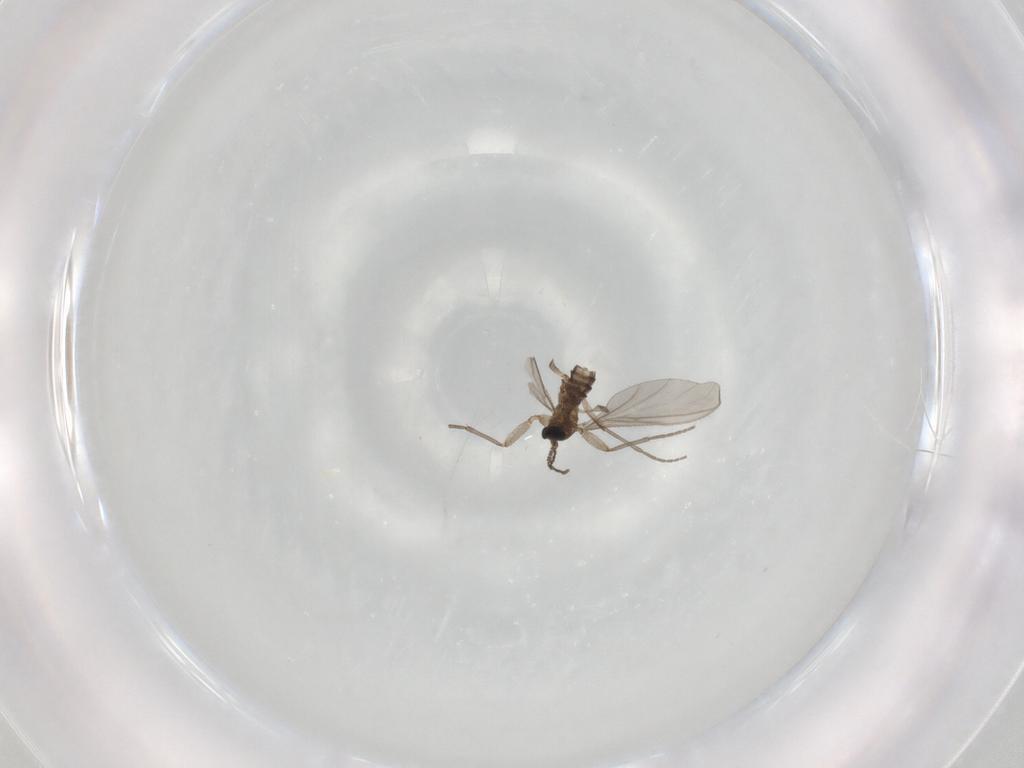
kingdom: Animalia
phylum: Arthropoda
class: Insecta
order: Diptera
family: Sciaridae
